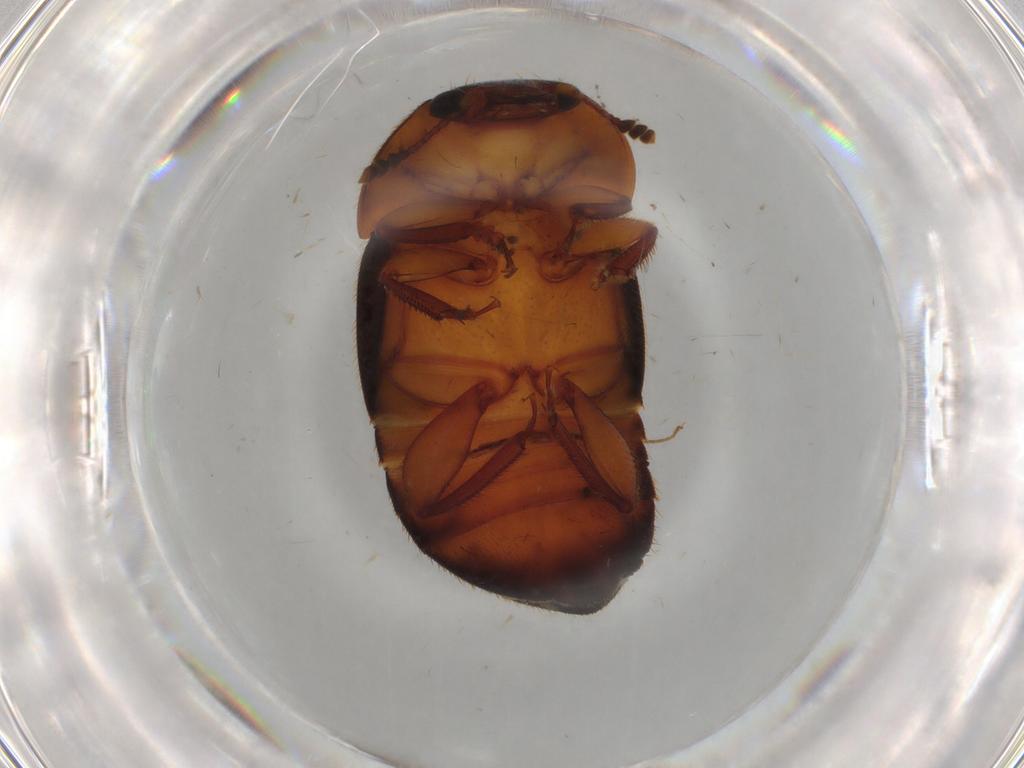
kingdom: Animalia
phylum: Arthropoda
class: Insecta
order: Coleoptera
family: Nitidulidae
